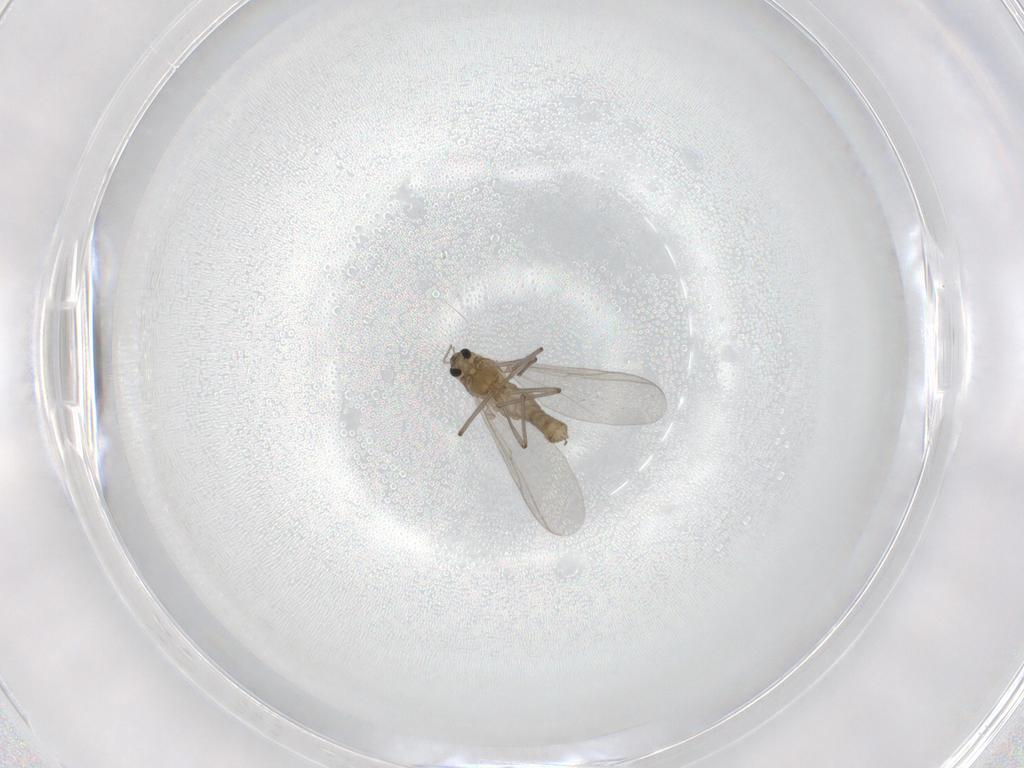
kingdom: Animalia
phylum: Arthropoda
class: Insecta
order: Diptera
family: Chironomidae
